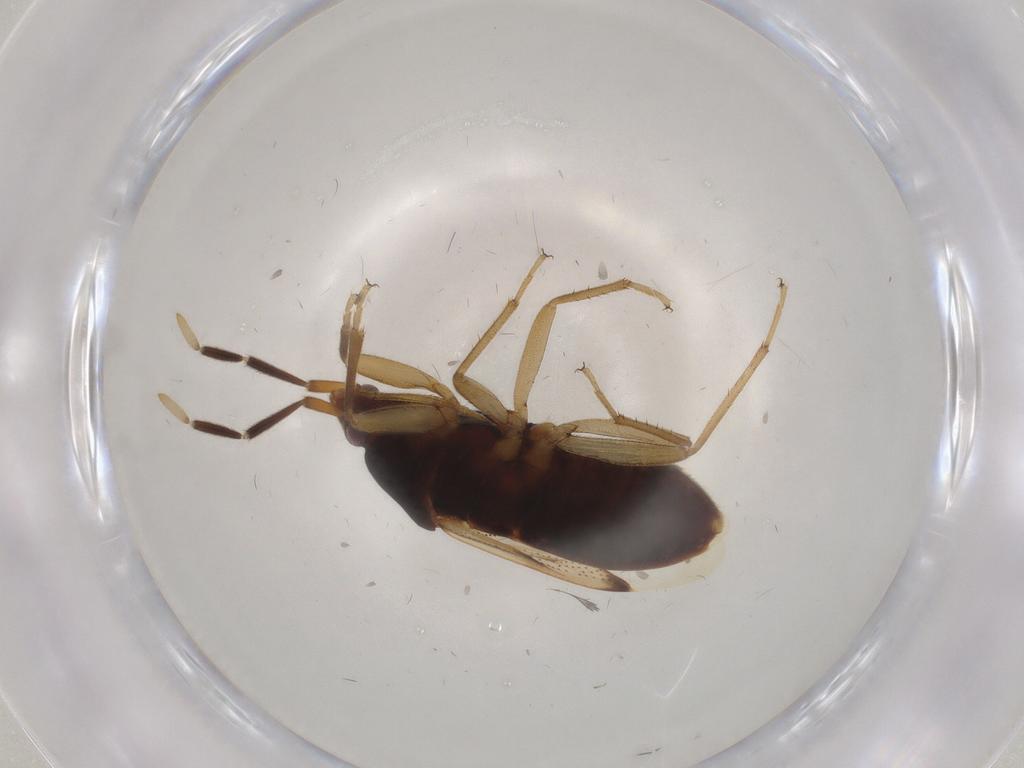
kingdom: Animalia
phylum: Arthropoda
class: Insecta
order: Hemiptera
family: Rhyparochromidae
